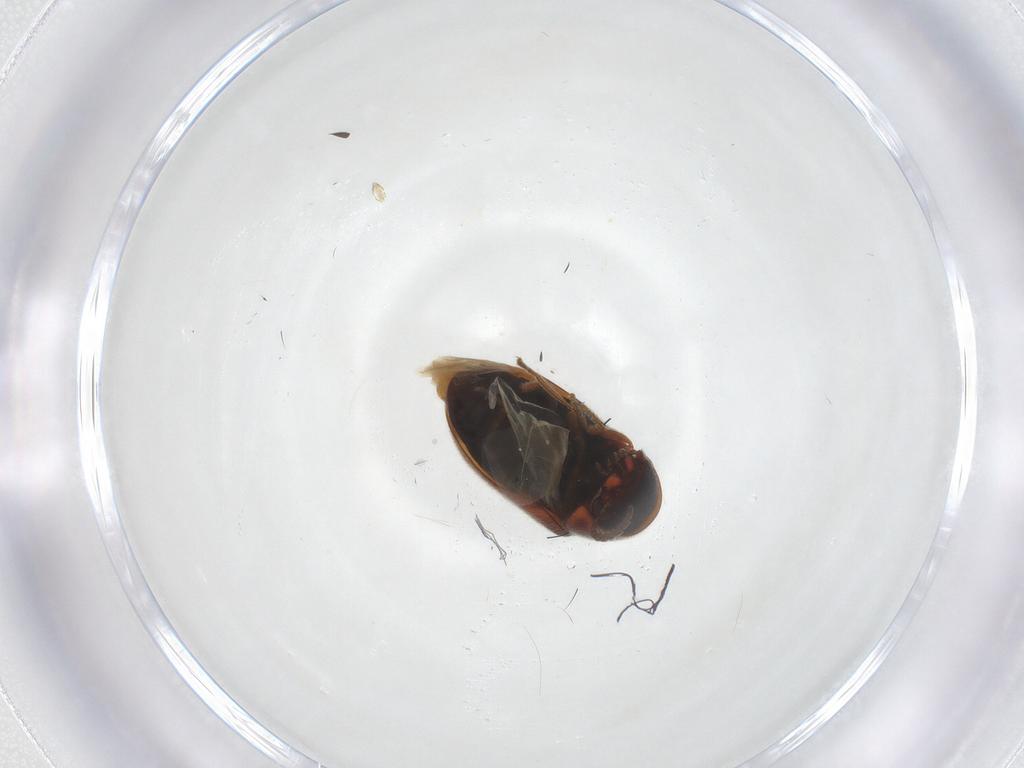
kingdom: Animalia
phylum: Arthropoda
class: Insecta
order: Coleoptera
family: Ptinidae
